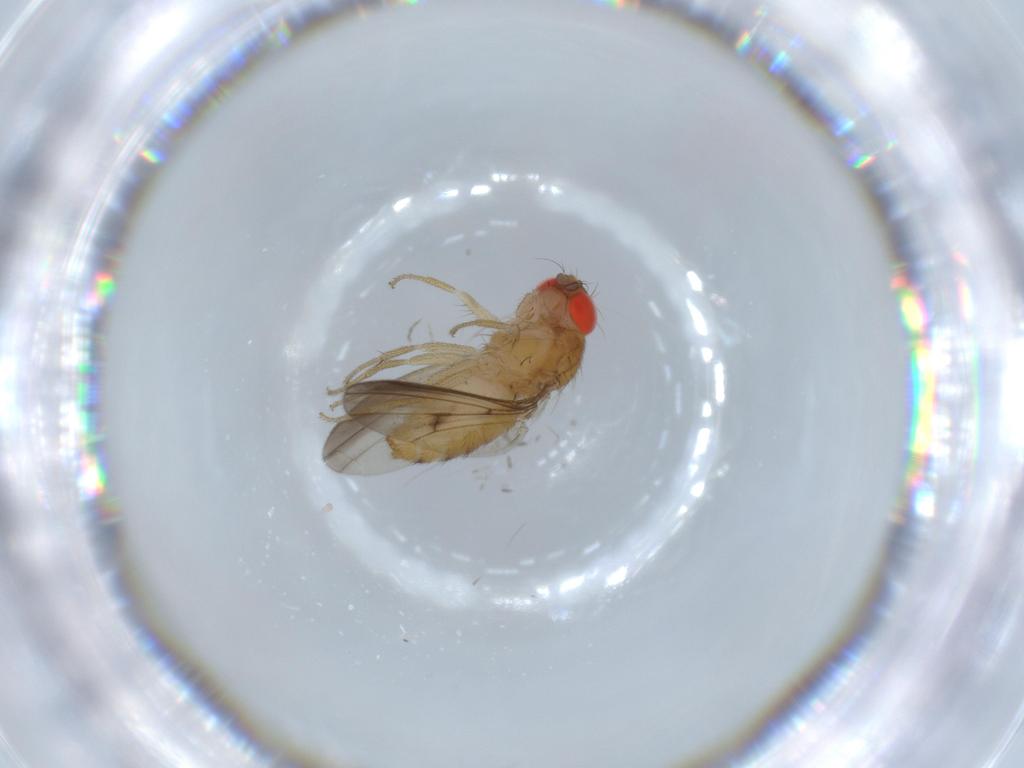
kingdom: Animalia
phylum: Arthropoda
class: Insecta
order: Diptera
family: Drosophilidae
